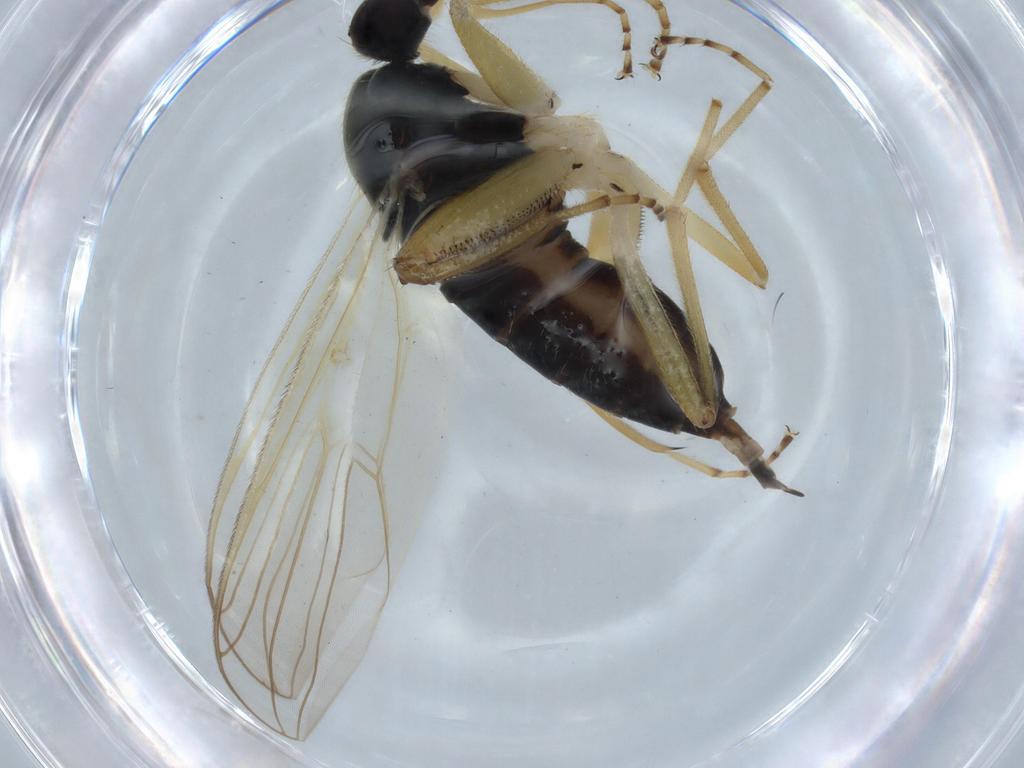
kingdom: Animalia
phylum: Arthropoda
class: Insecta
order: Diptera
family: Hybotidae
